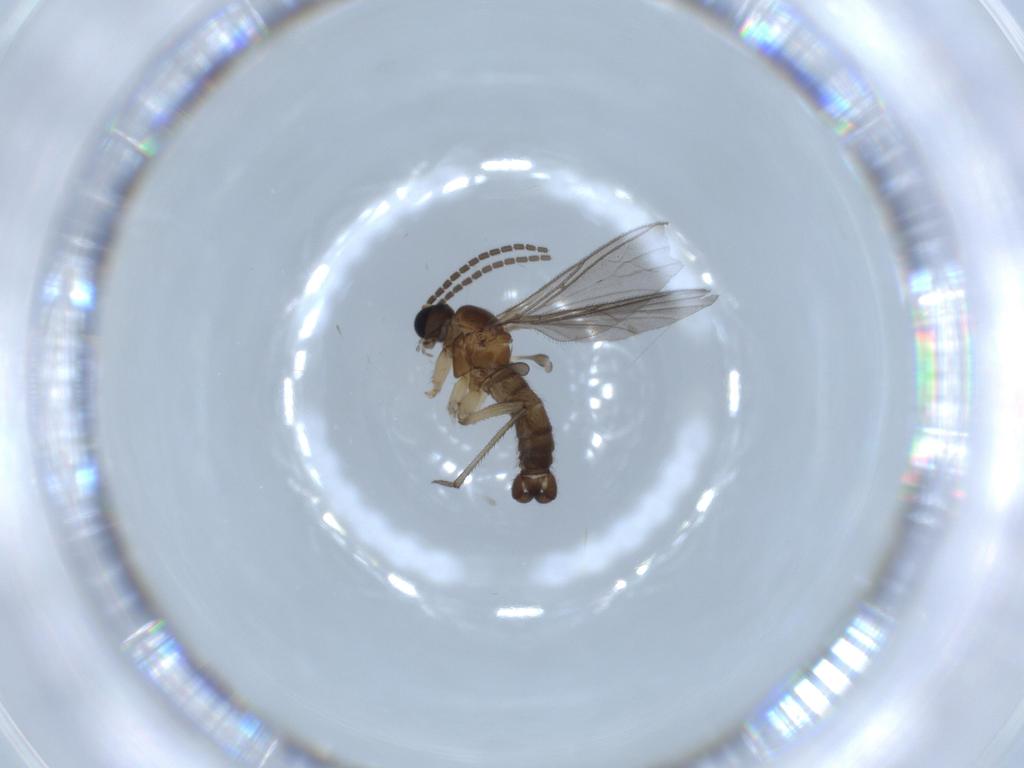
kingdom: Animalia
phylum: Arthropoda
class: Insecta
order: Diptera
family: Sciaridae
